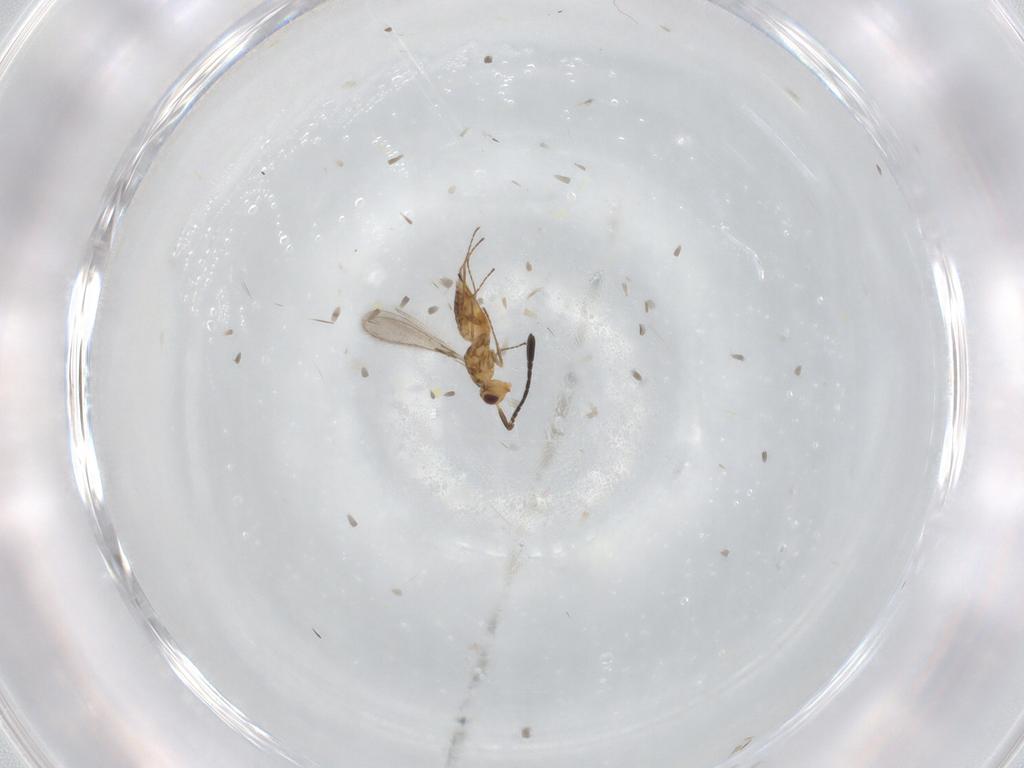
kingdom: Animalia
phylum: Arthropoda
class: Insecta
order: Hymenoptera
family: Mymaridae
